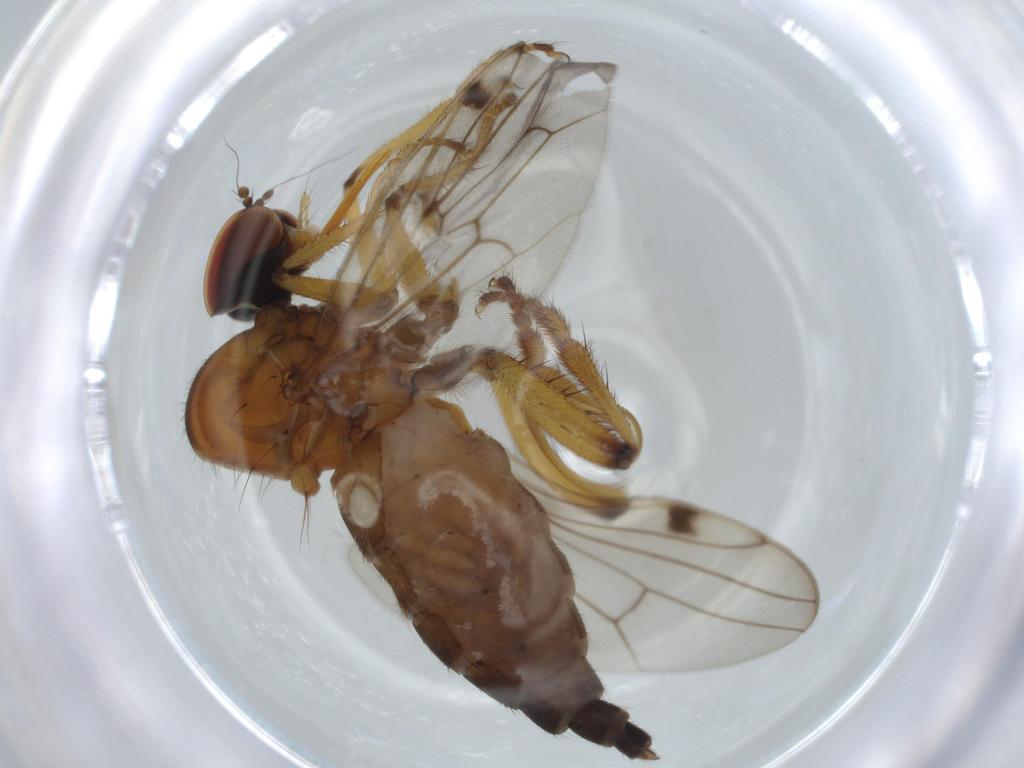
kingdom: Animalia
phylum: Arthropoda
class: Insecta
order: Diptera
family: Hybotidae
